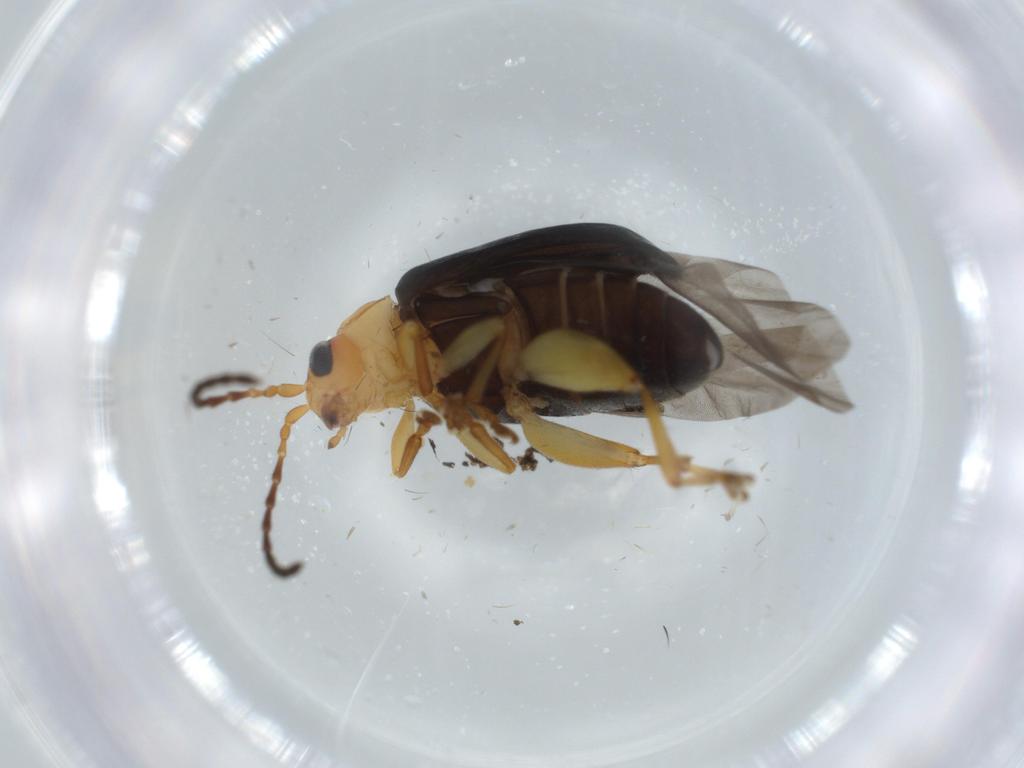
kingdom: Animalia
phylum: Arthropoda
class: Insecta
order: Coleoptera
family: Chrysomelidae
